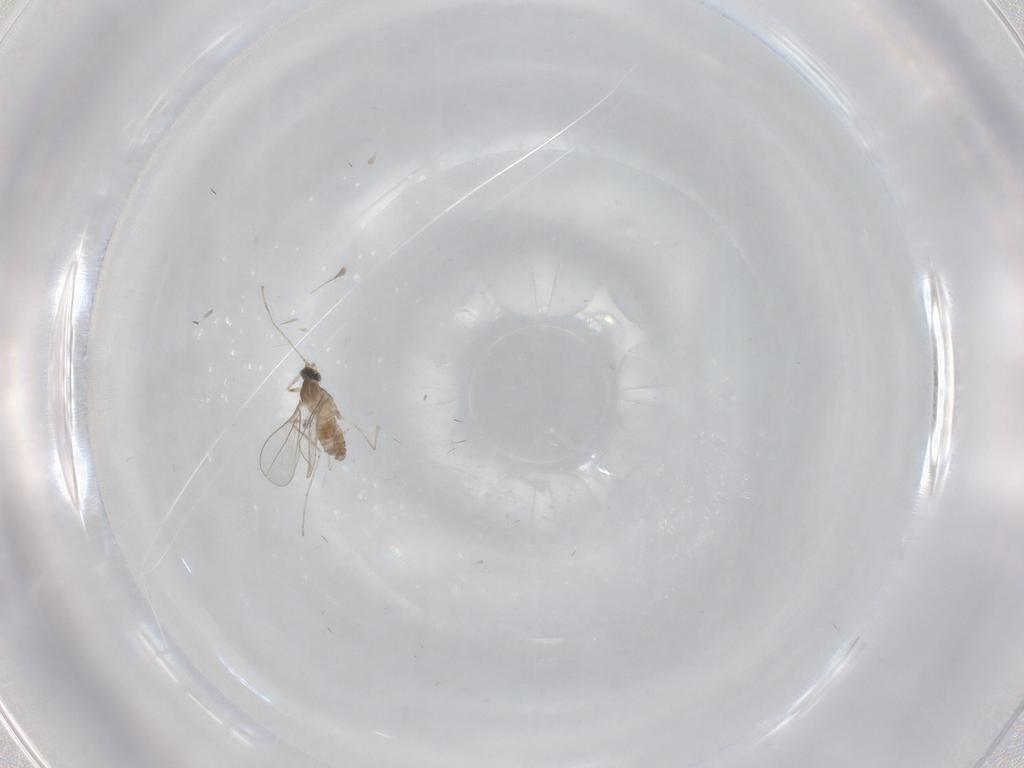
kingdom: Animalia
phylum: Arthropoda
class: Insecta
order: Diptera
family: Cecidomyiidae
